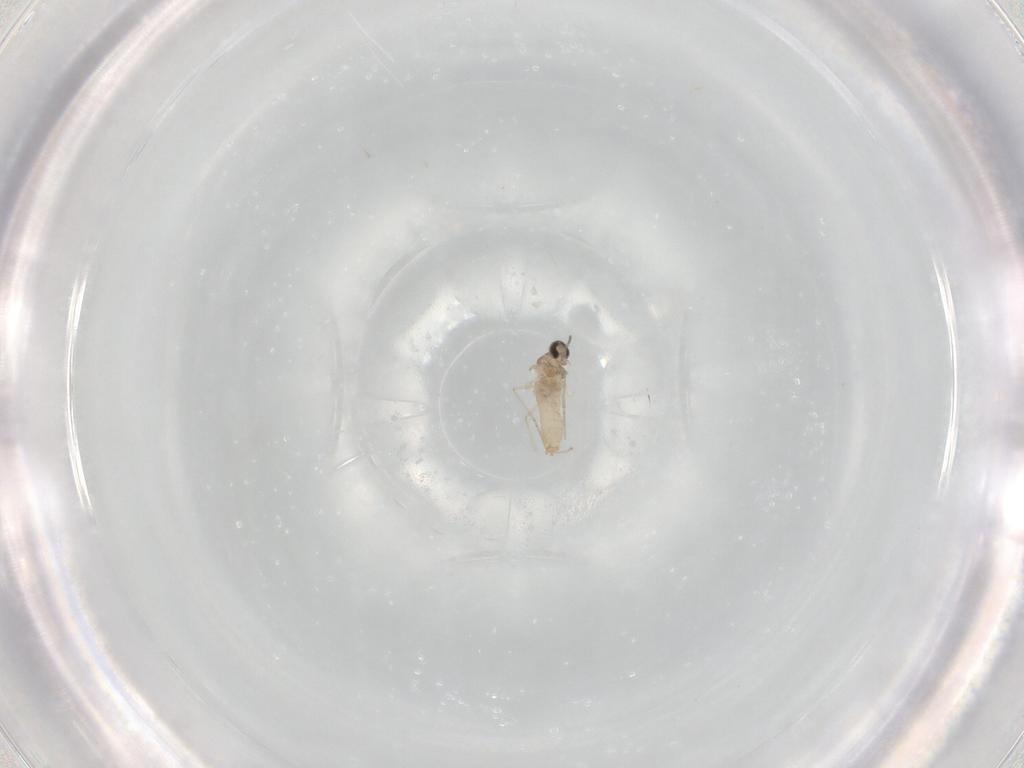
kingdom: Animalia
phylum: Arthropoda
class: Insecta
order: Diptera
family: Cecidomyiidae
